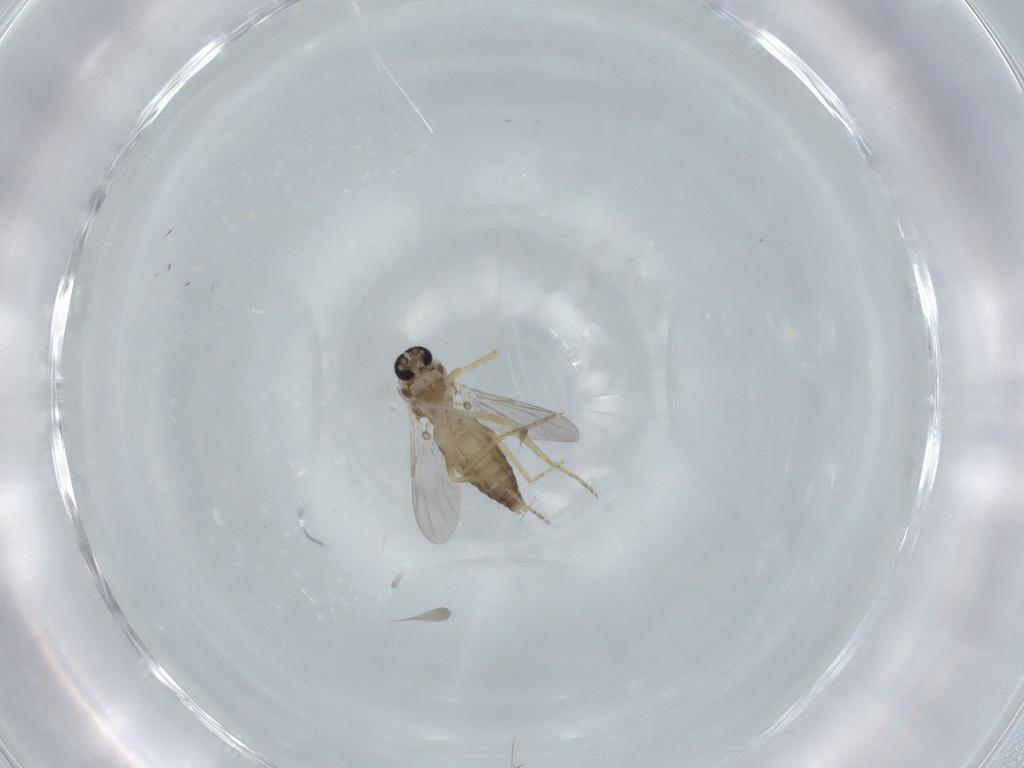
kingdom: Animalia
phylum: Arthropoda
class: Insecta
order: Diptera
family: Ceratopogonidae
